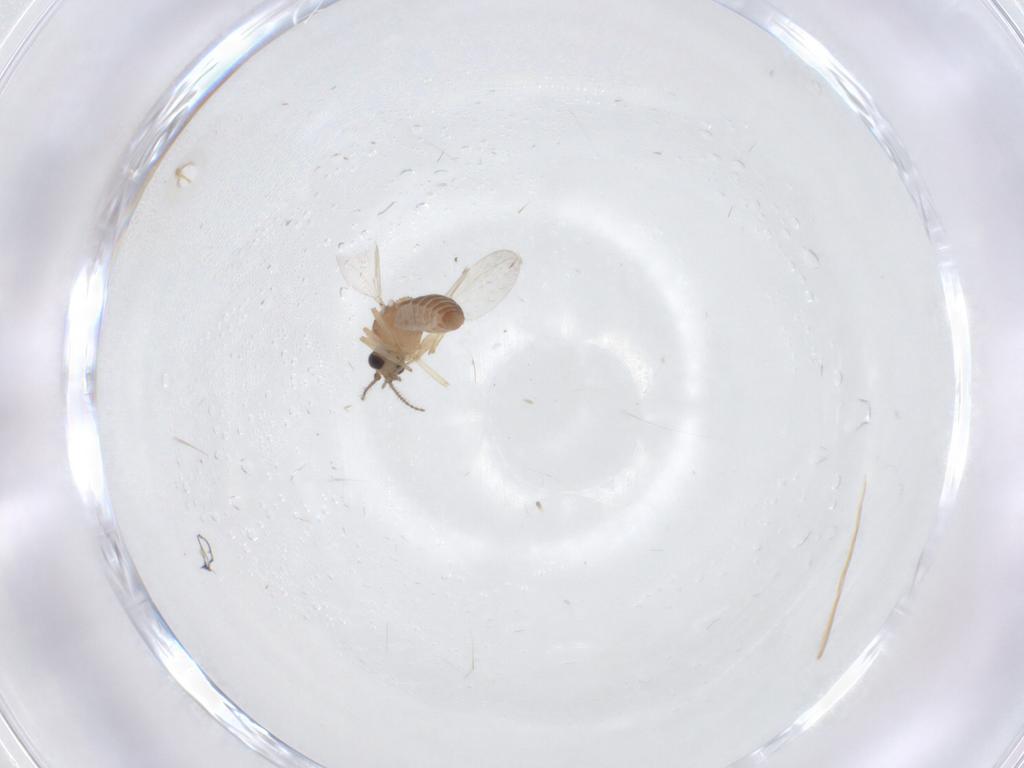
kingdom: Animalia
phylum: Arthropoda
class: Insecta
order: Diptera
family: Ceratopogonidae
